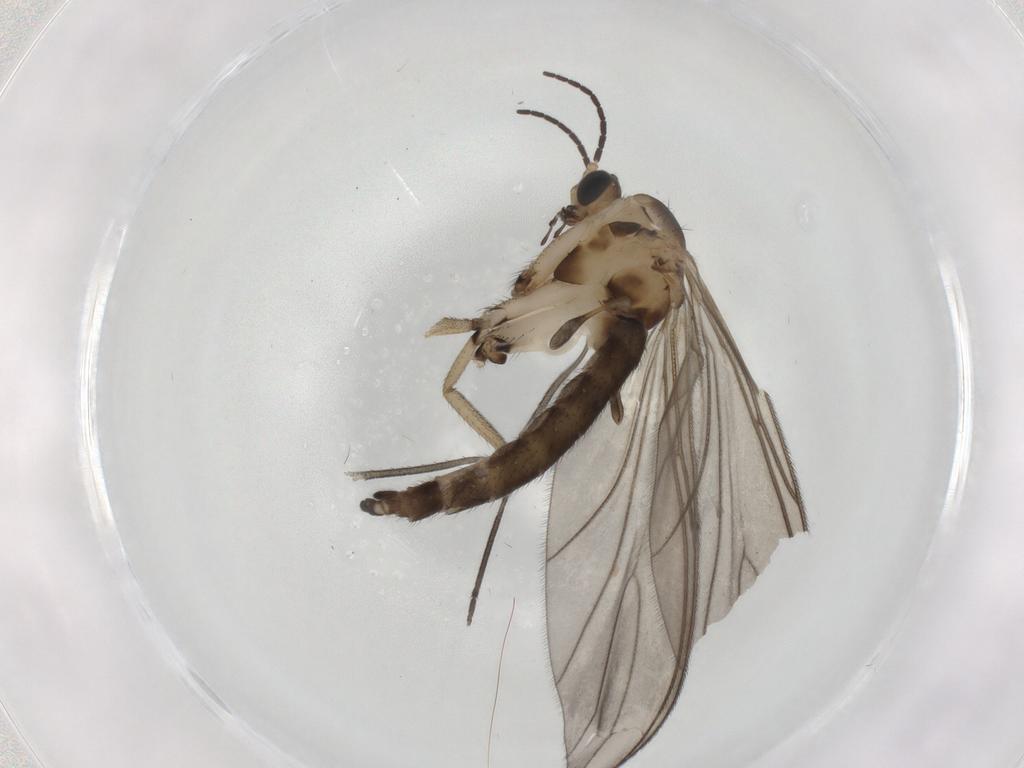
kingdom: Animalia
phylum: Arthropoda
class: Insecta
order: Diptera
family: Sciaridae
